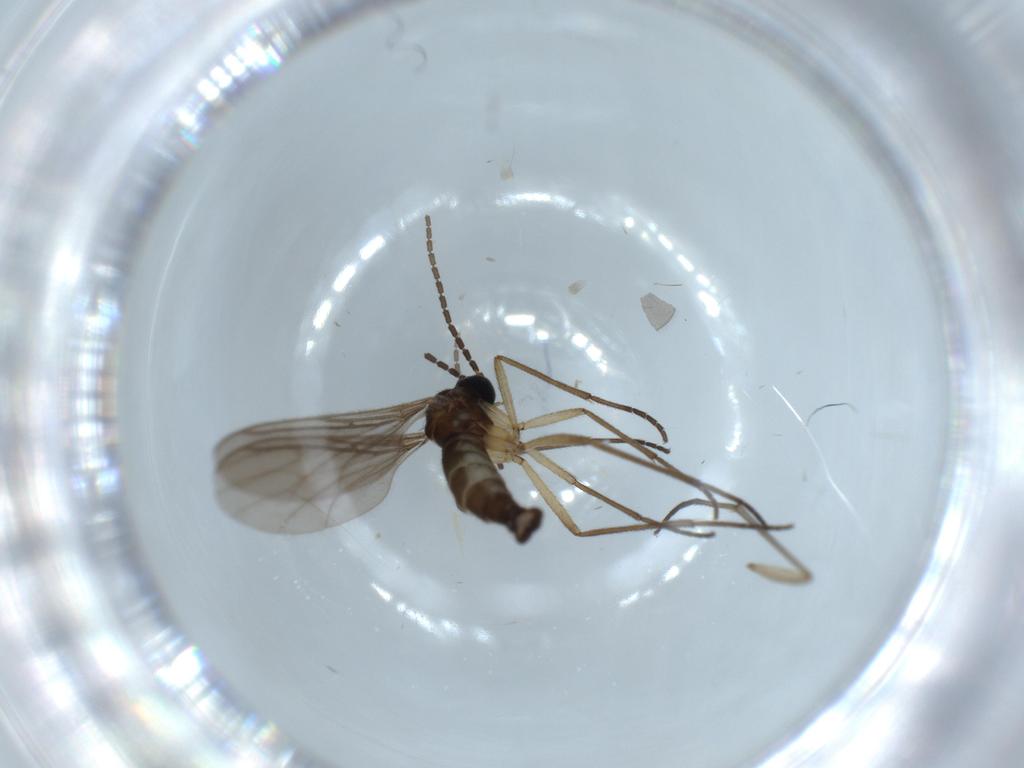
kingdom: Animalia
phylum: Arthropoda
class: Insecta
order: Diptera
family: Sciaridae
